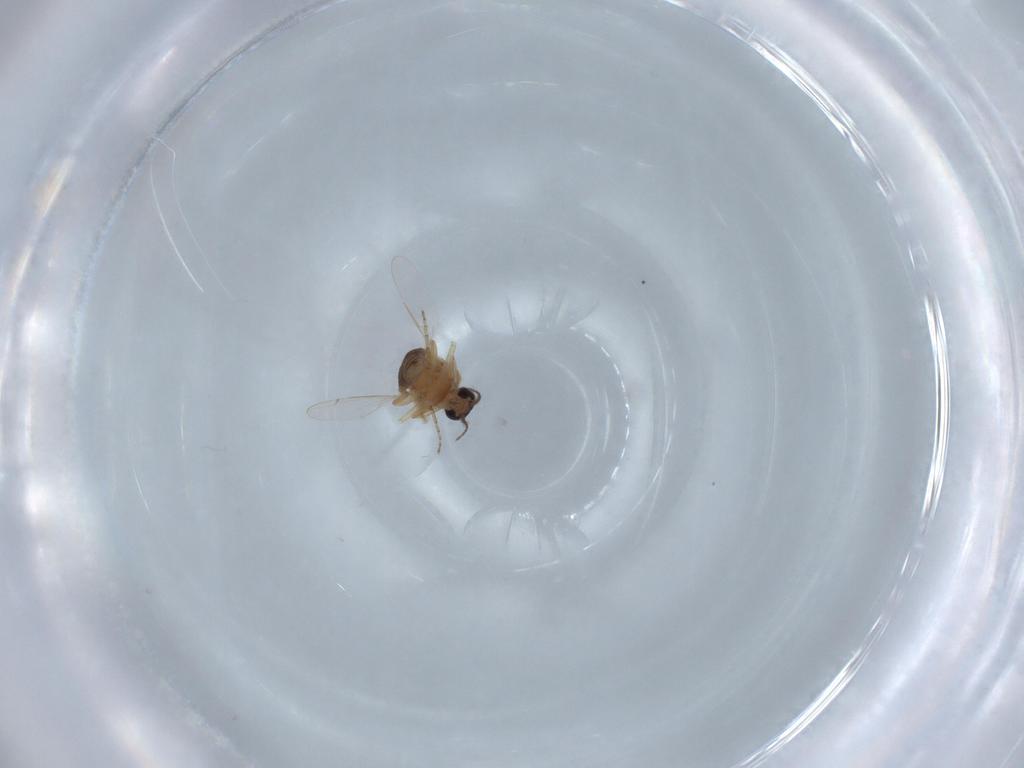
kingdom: Animalia
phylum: Arthropoda
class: Insecta
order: Diptera
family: Ceratopogonidae
